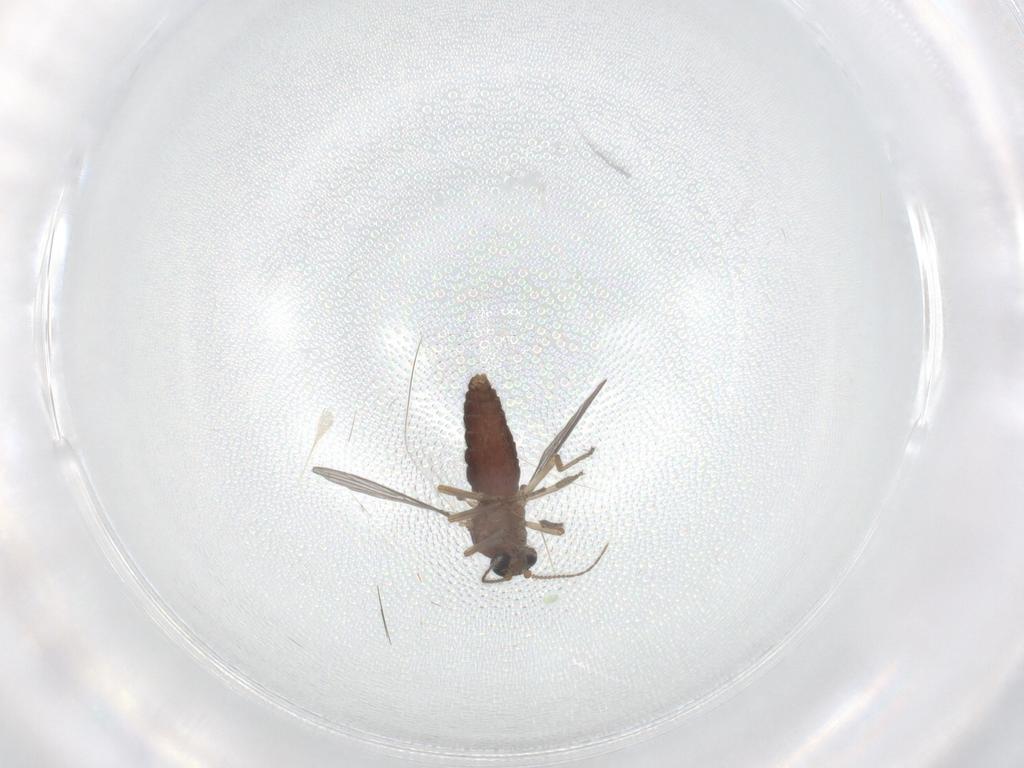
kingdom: Animalia
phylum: Arthropoda
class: Insecta
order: Diptera
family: Ceratopogonidae
